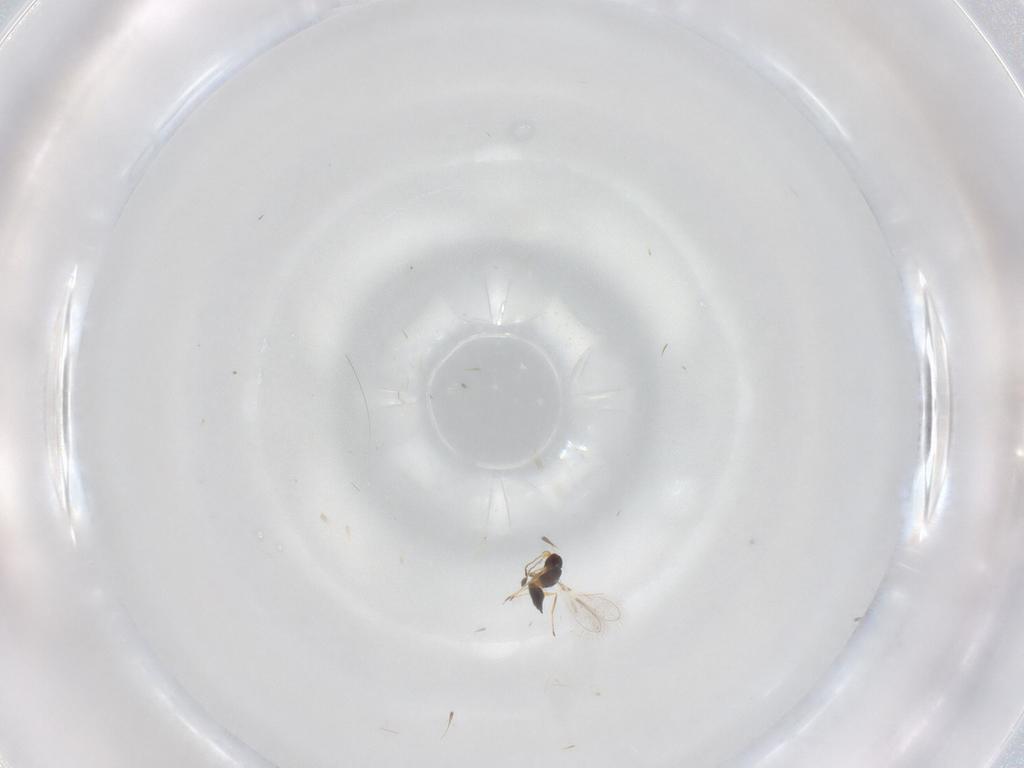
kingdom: Animalia
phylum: Arthropoda
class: Insecta
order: Hymenoptera
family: Mymaridae
